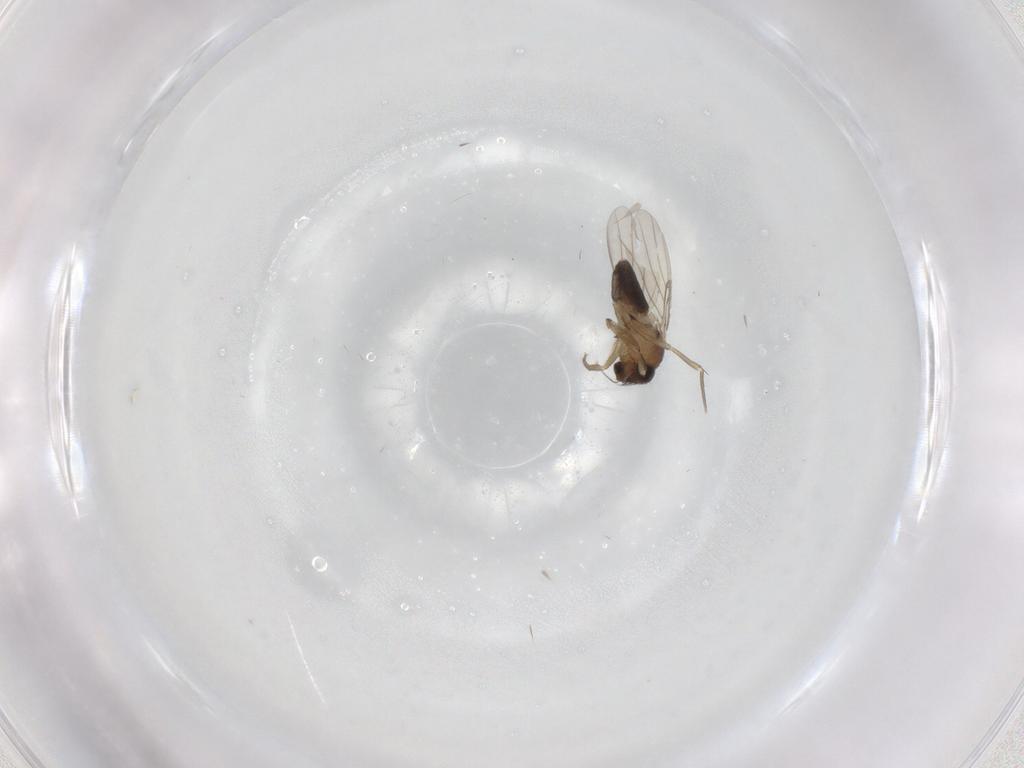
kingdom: Animalia
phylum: Arthropoda
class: Insecta
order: Diptera
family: Phoridae
